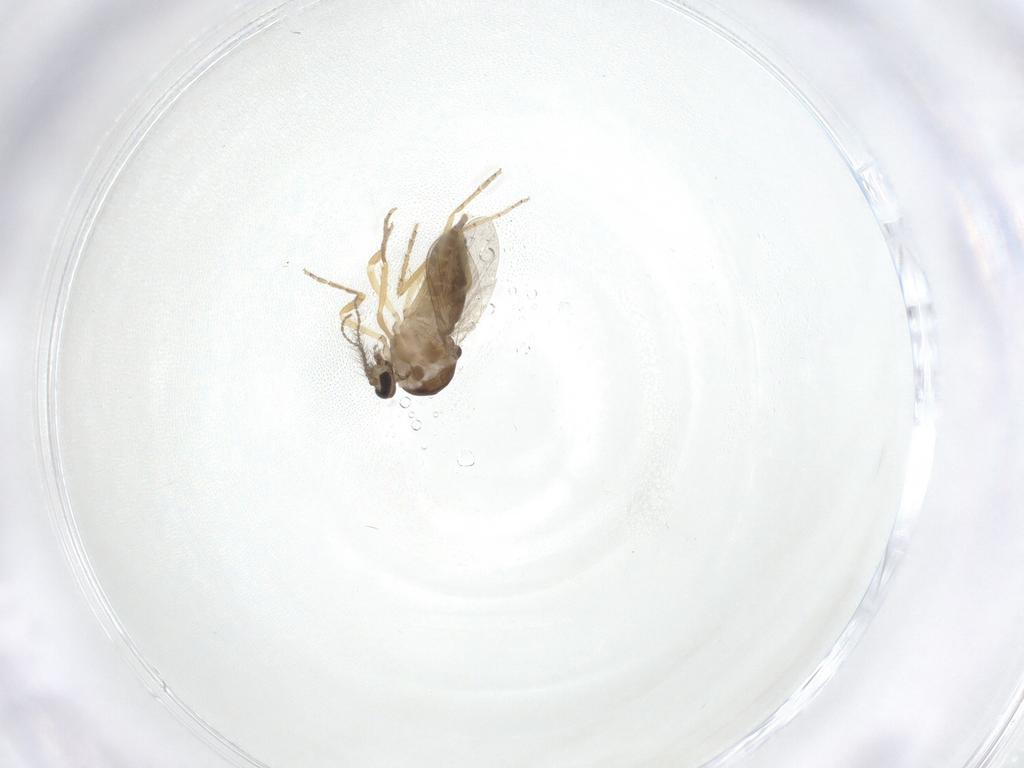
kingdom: Animalia
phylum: Arthropoda
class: Insecta
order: Diptera
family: Ceratopogonidae
